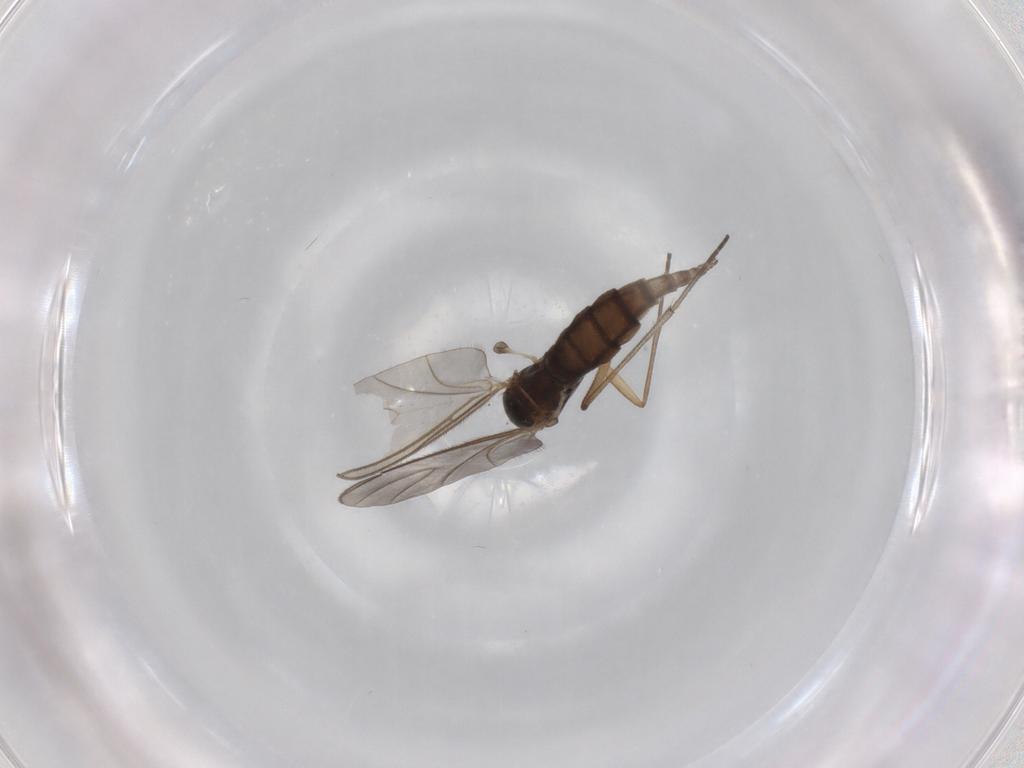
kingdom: Animalia
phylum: Arthropoda
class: Insecta
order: Diptera
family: Sciaridae
